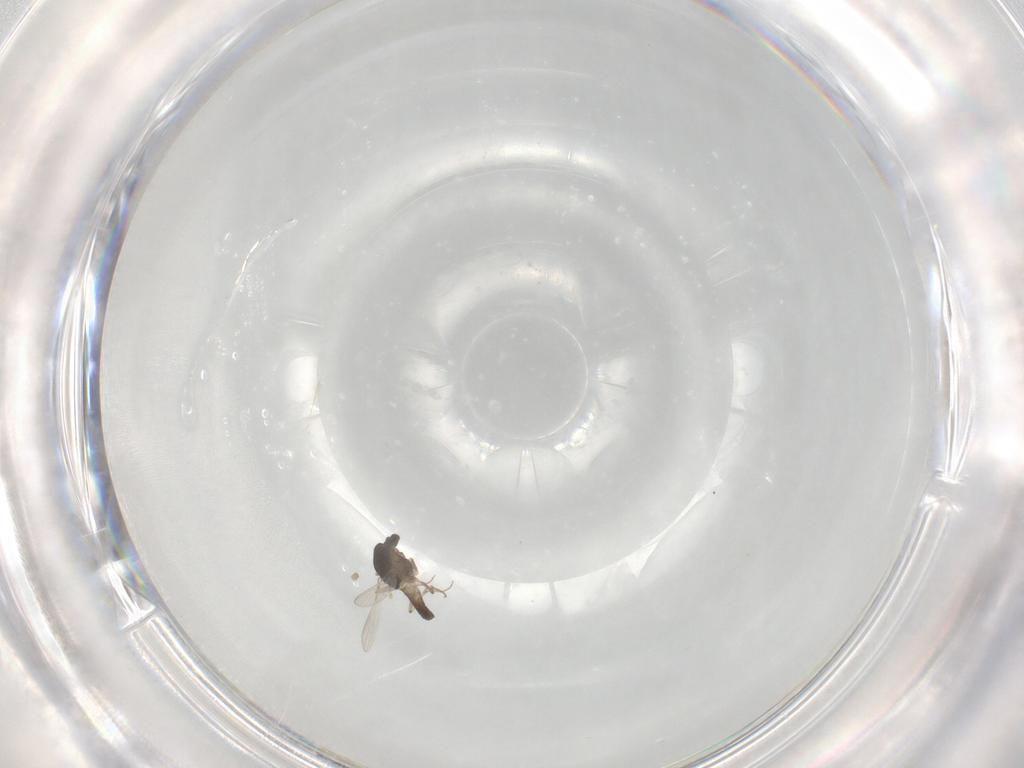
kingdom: Animalia
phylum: Arthropoda
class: Insecta
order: Diptera
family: Chironomidae
